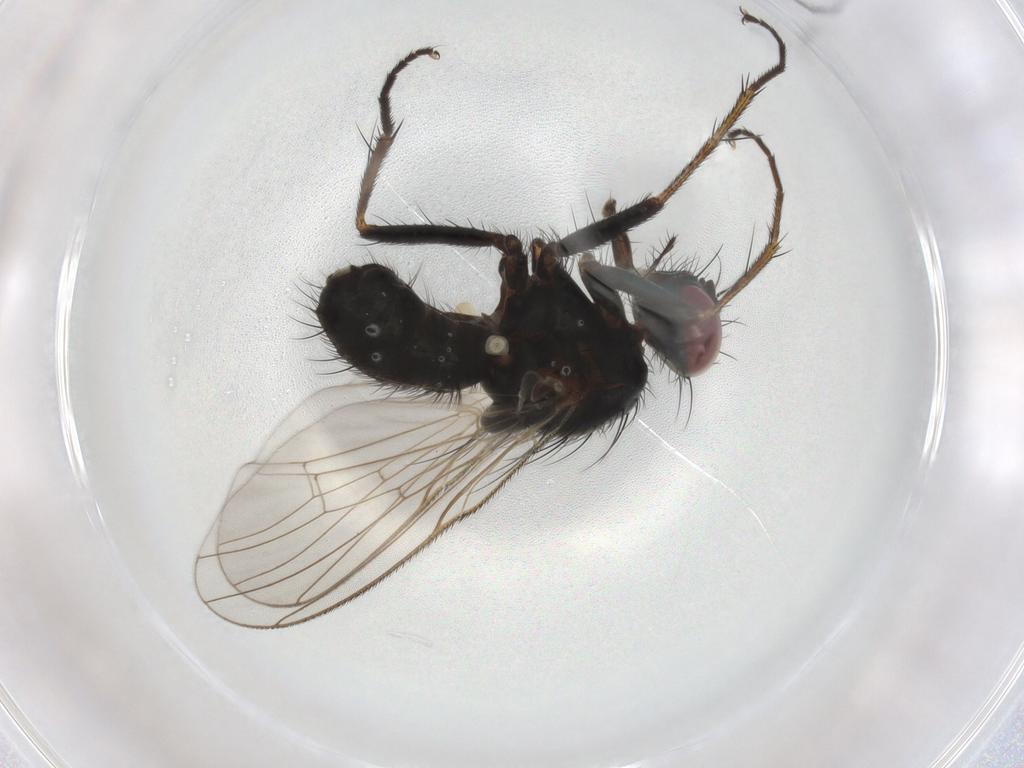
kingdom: Animalia
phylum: Arthropoda
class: Insecta
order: Diptera
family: Muscidae
